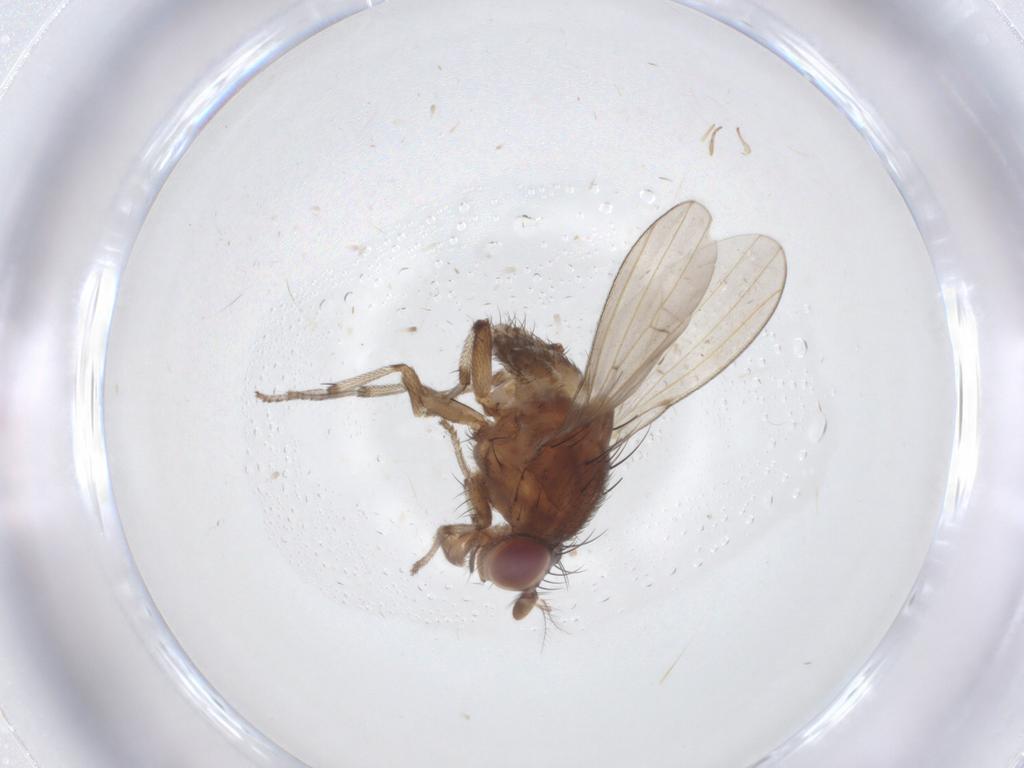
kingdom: Animalia
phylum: Arthropoda
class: Insecta
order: Diptera
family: Psychodidae
